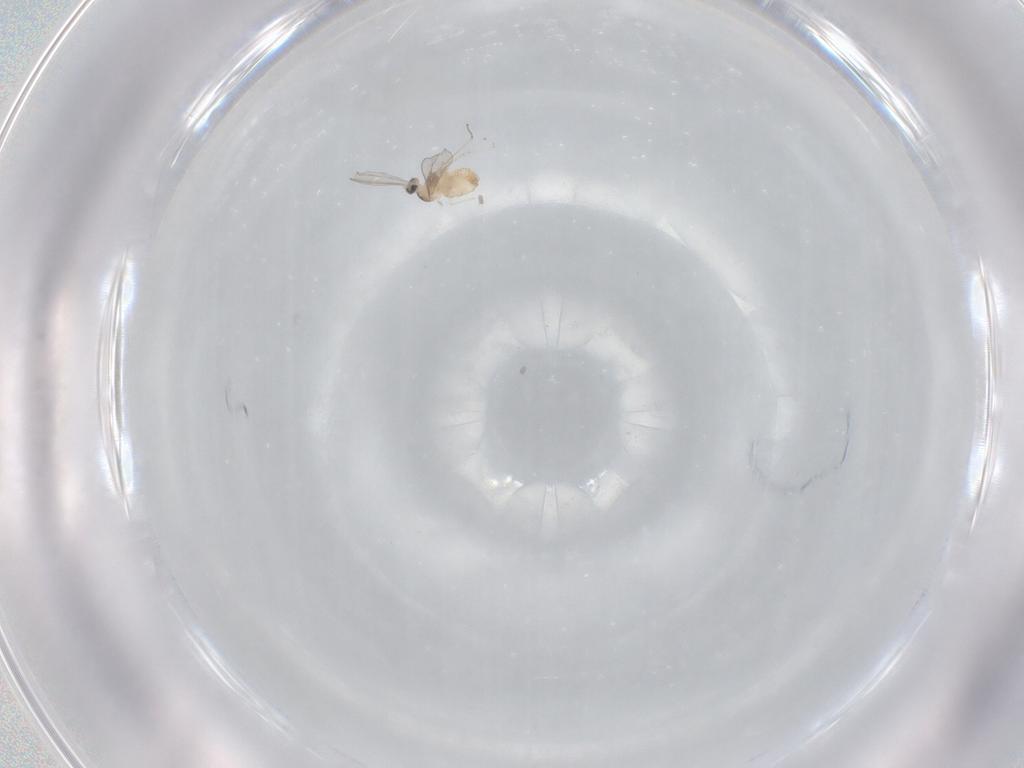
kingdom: Animalia
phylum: Arthropoda
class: Insecta
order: Diptera
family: Cecidomyiidae
